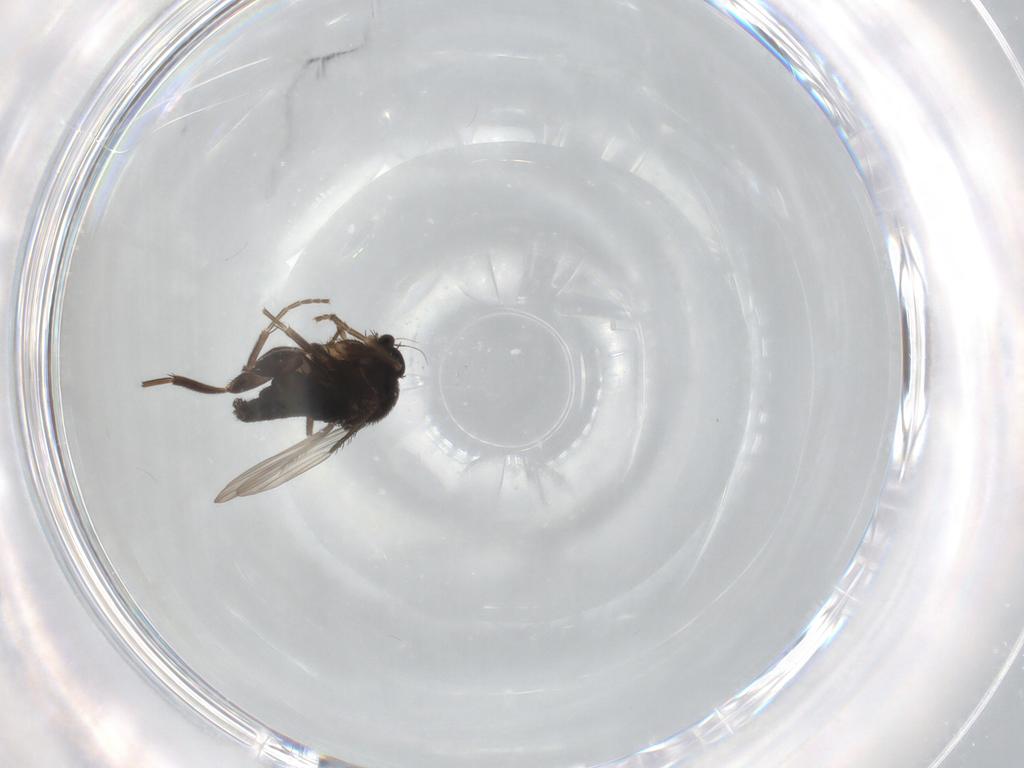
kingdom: Animalia
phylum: Arthropoda
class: Insecta
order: Diptera
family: Phoridae
